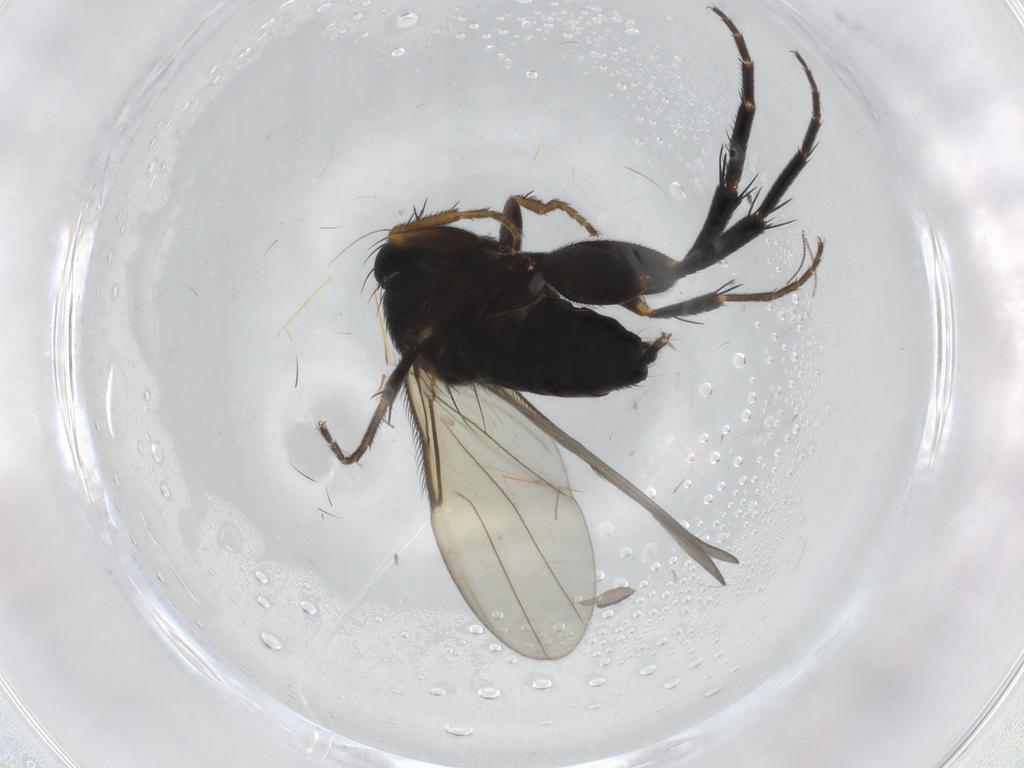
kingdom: Animalia
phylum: Arthropoda
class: Insecta
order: Diptera
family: Phoridae
